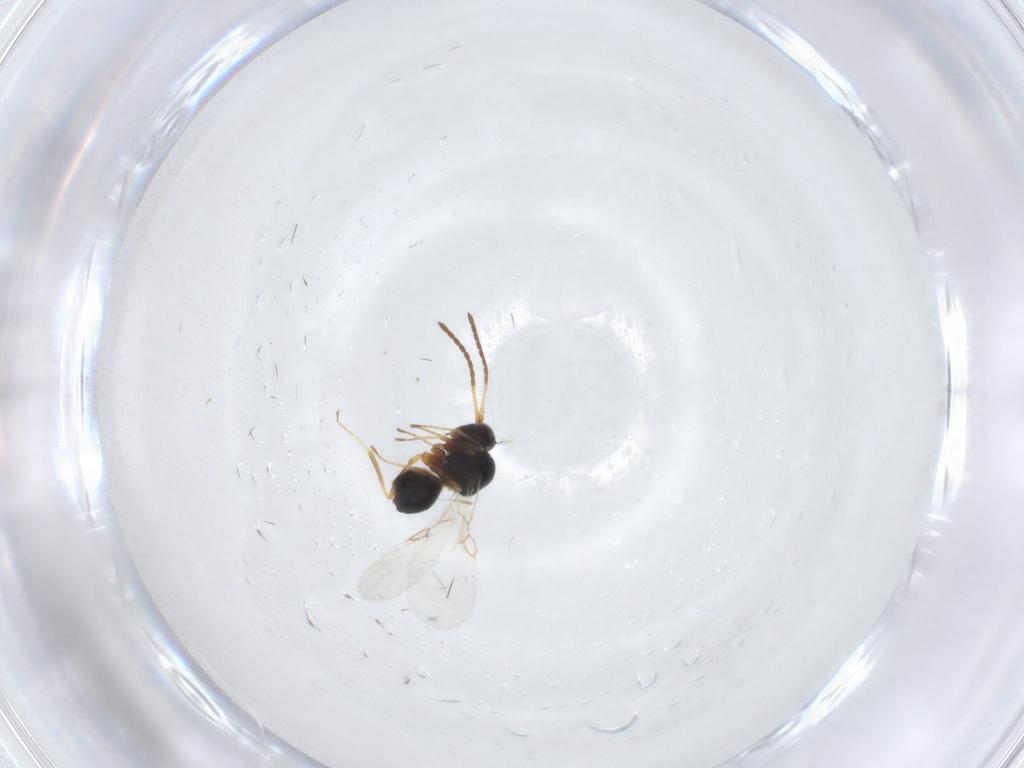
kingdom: Animalia
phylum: Arthropoda
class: Insecta
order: Hymenoptera
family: Figitidae
